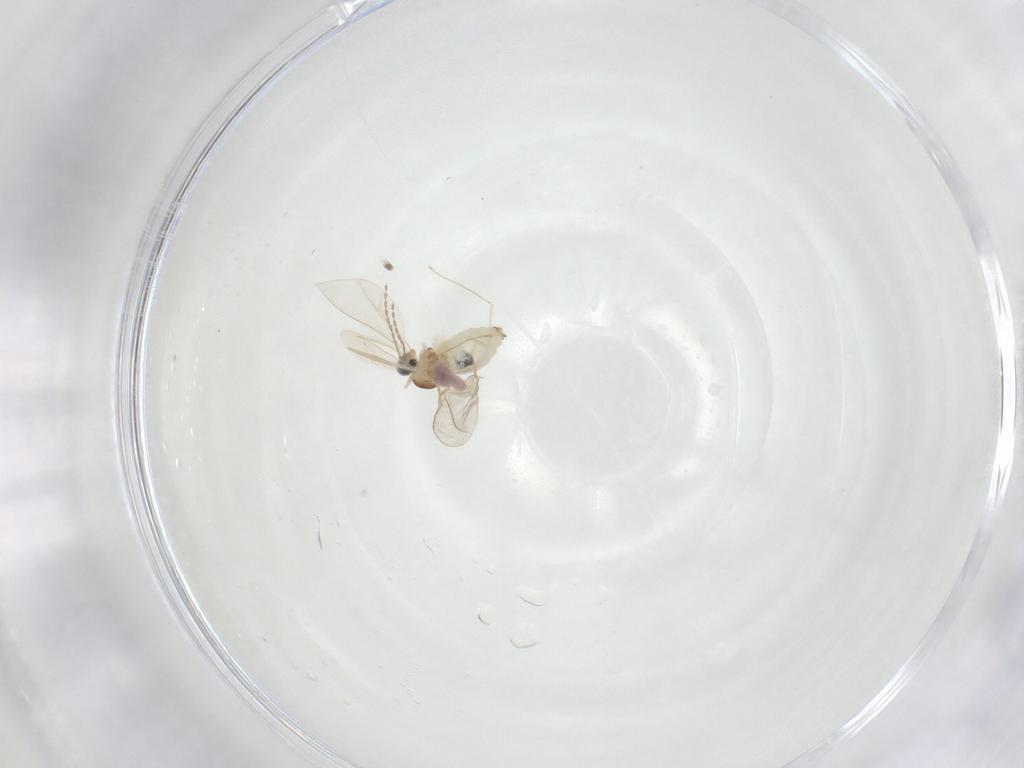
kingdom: Animalia
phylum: Arthropoda
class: Insecta
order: Diptera
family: Cecidomyiidae
